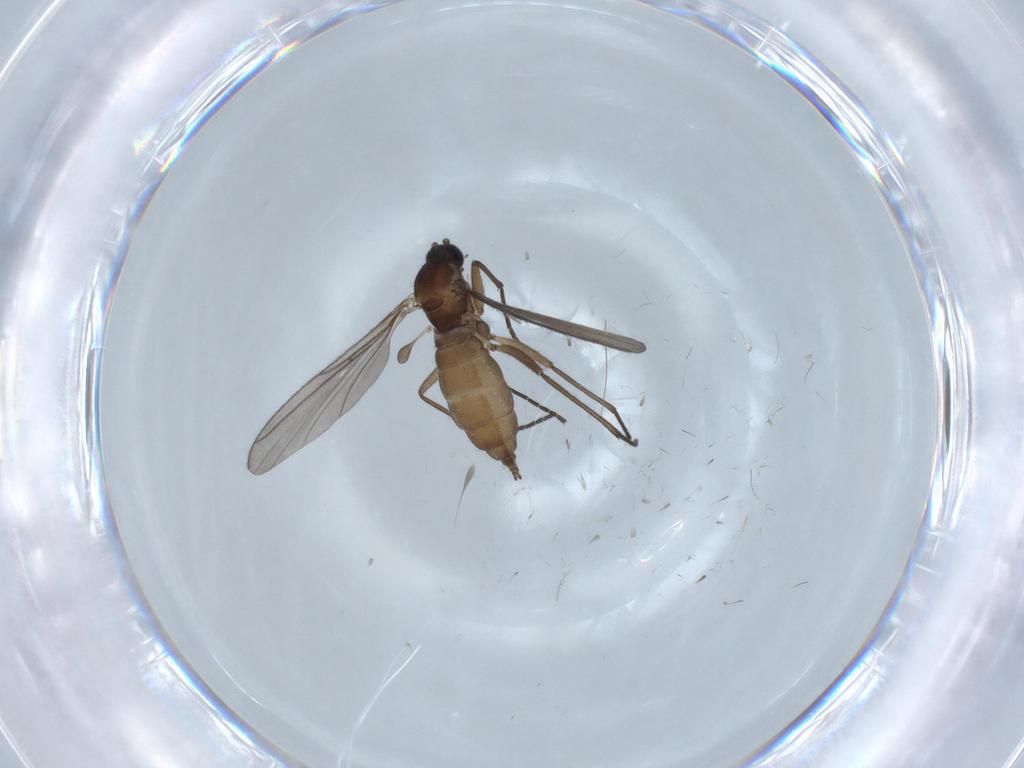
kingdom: Animalia
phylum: Arthropoda
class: Insecta
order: Diptera
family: Sciaridae
